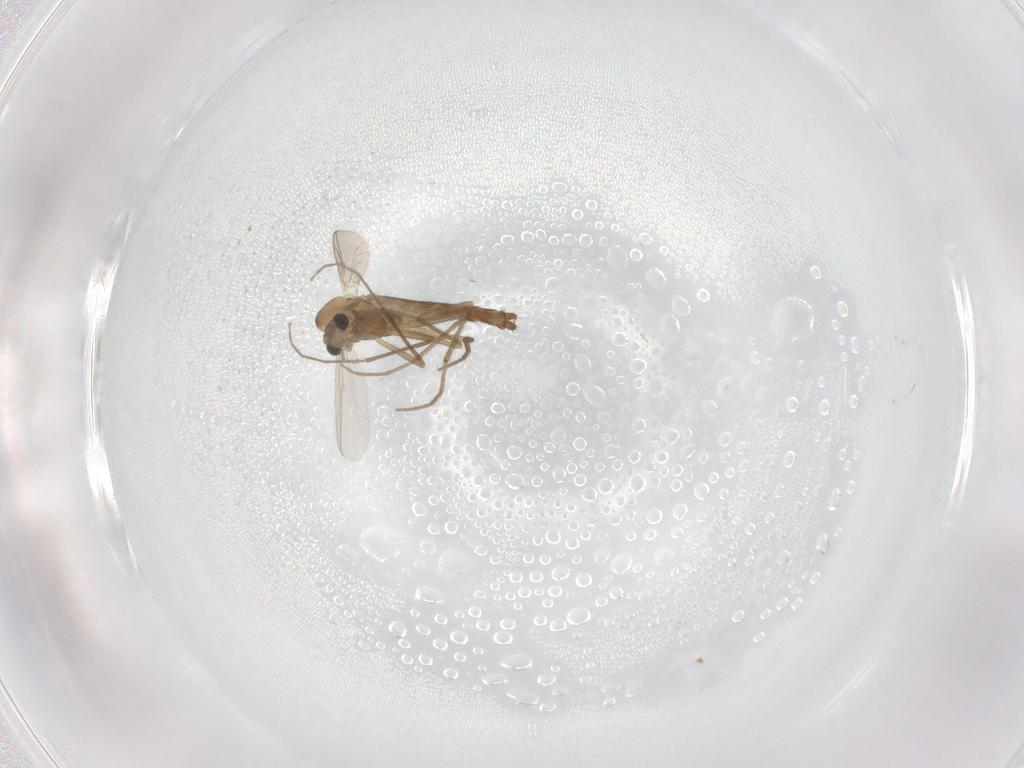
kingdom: Animalia
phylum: Arthropoda
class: Insecta
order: Diptera
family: Chironomidae
